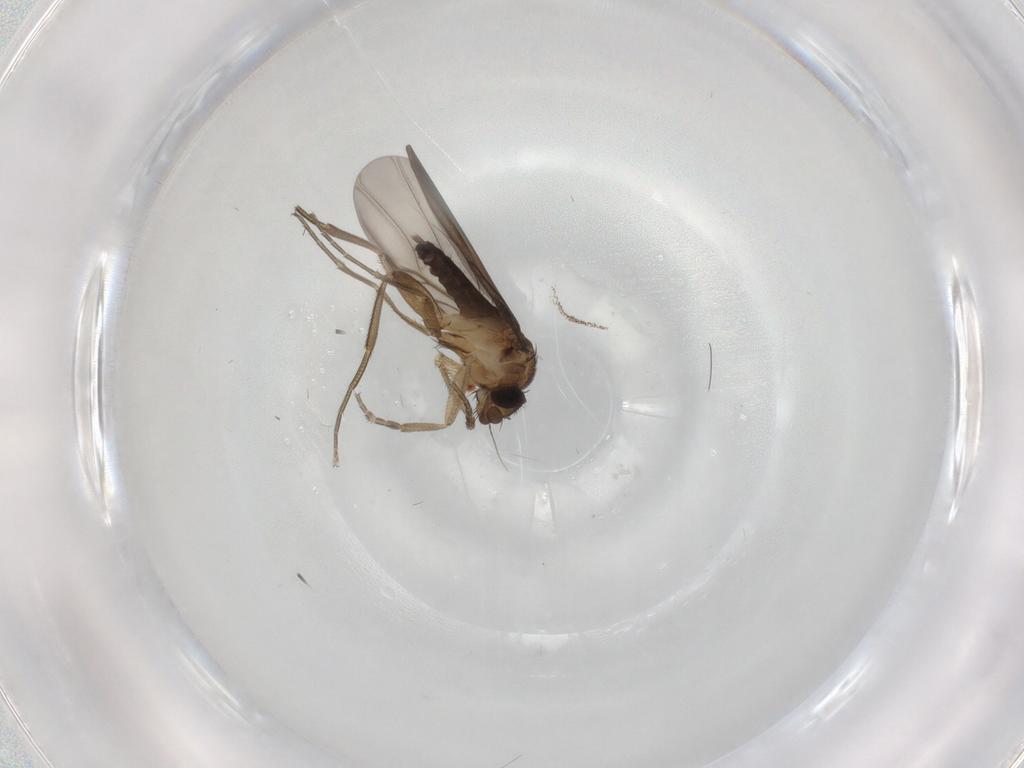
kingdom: Animalia
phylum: Arthropoda
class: Insecta
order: Diptera
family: Phoridae
